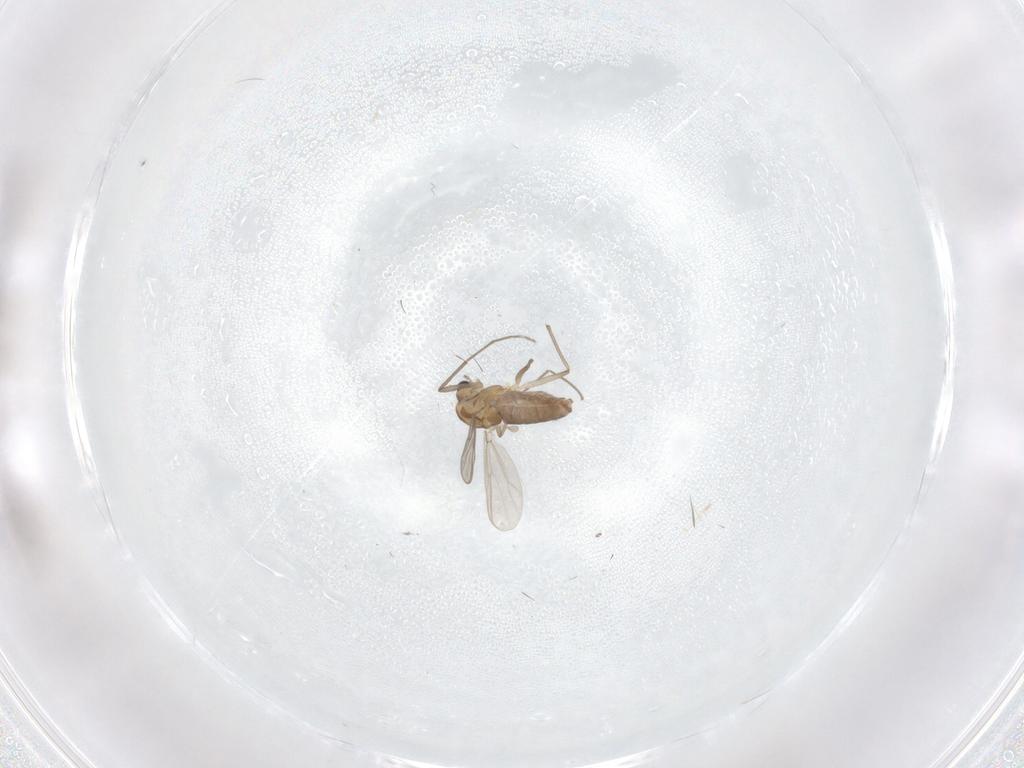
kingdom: Animalia
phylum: Arthropoda
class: Insecta
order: Diptera
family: Chironomidae
